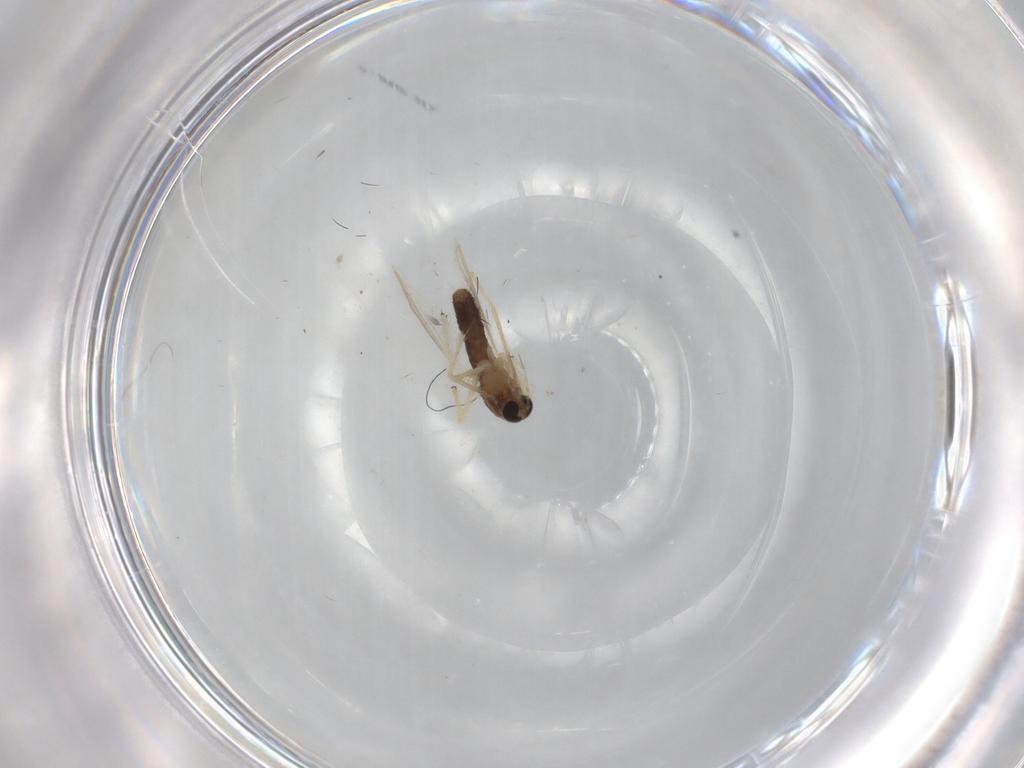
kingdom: Animalia
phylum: Arthropoda
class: Insecta
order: Diptera
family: Chironomidae
